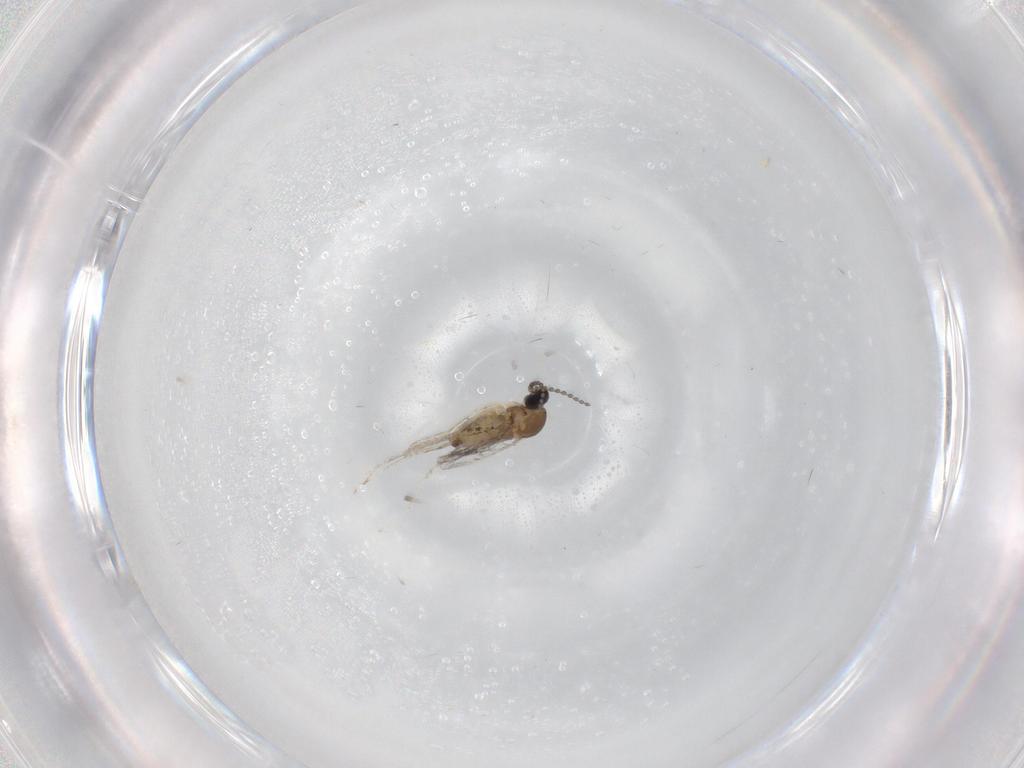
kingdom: Animalia
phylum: Arthropoda
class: Insecta
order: Diptera
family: Cecidomyiidae
